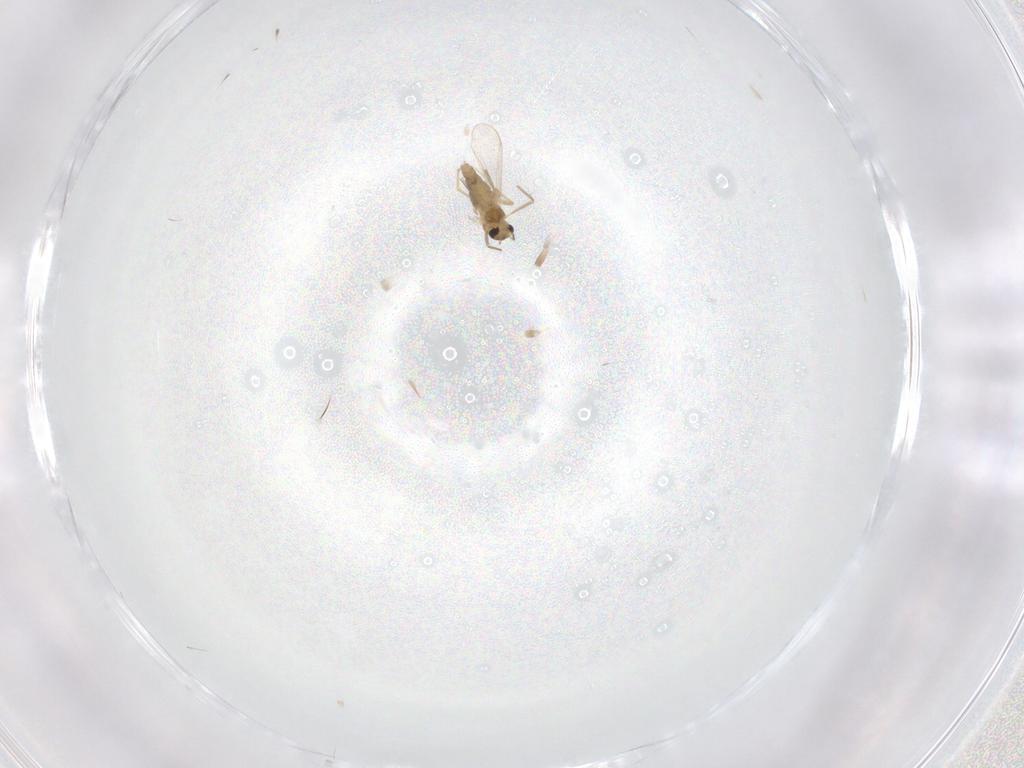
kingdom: Animalia
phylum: Arthropoda
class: Insecta
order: Diptera
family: Chironomidae
